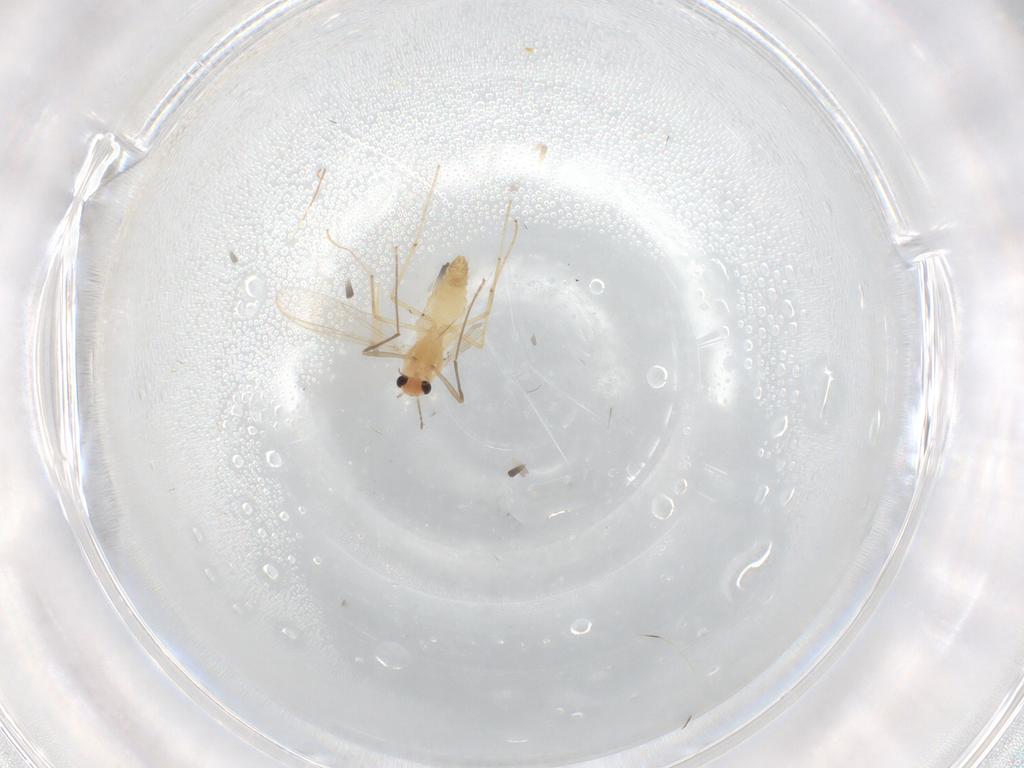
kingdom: Animalia
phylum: Arthropoda
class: Insecta
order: Diptera
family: Chironomidae
